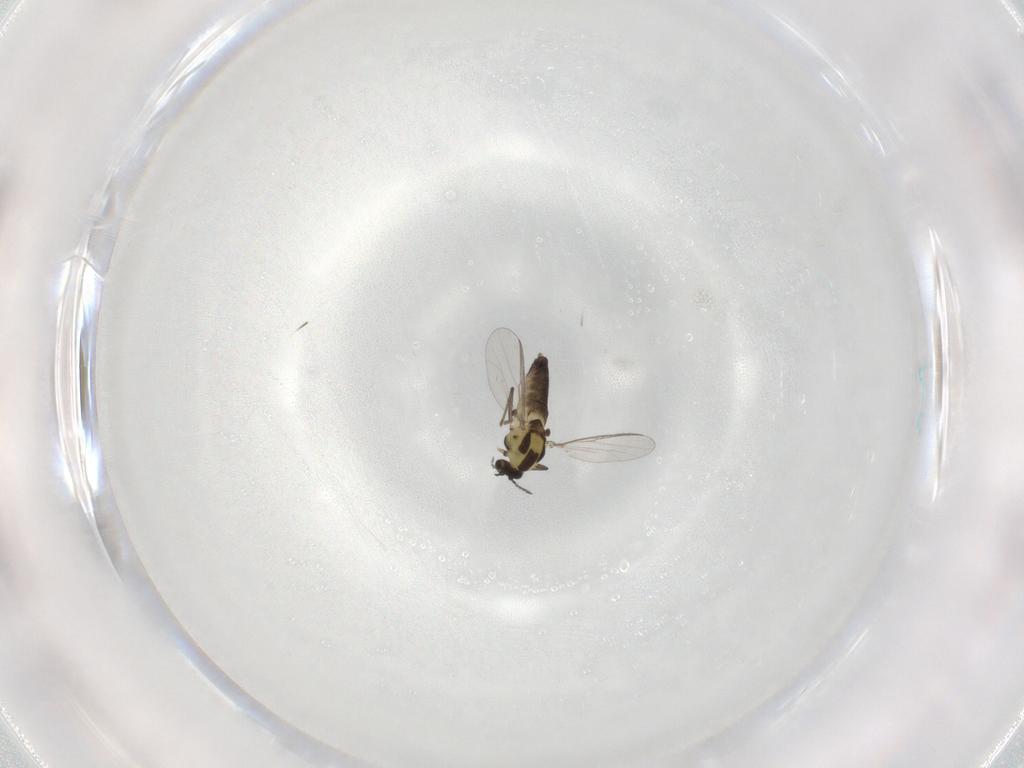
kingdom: Animalia
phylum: Arthropoda
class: Insecta
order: Diptera
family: Chironomidae
